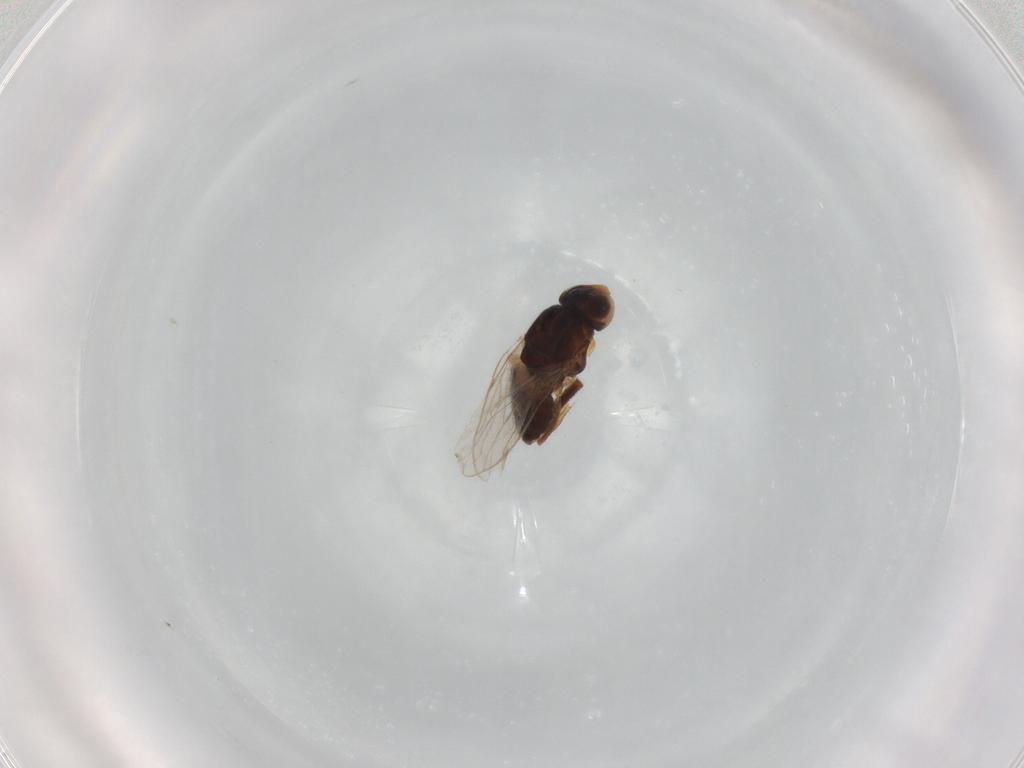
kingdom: Animalia
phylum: Arthropoda
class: Insecta
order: Diptera
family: Chloropidae
